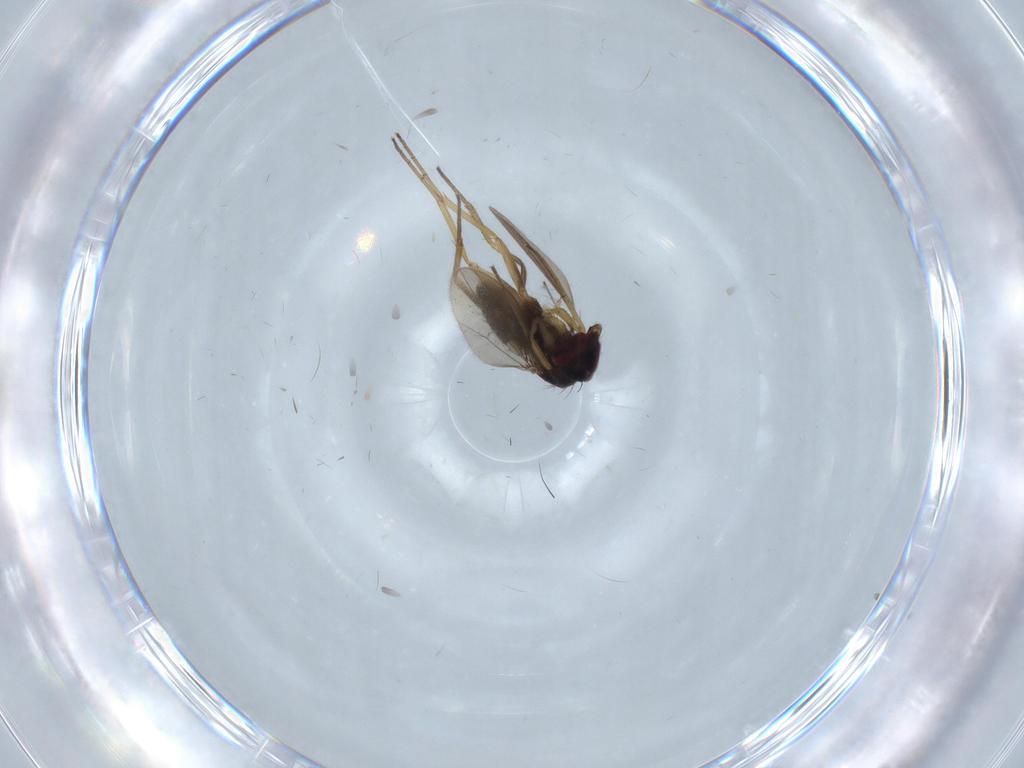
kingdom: Animalia
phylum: Arthropoda
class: Insecta
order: Diptera
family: Dolichopodidae
